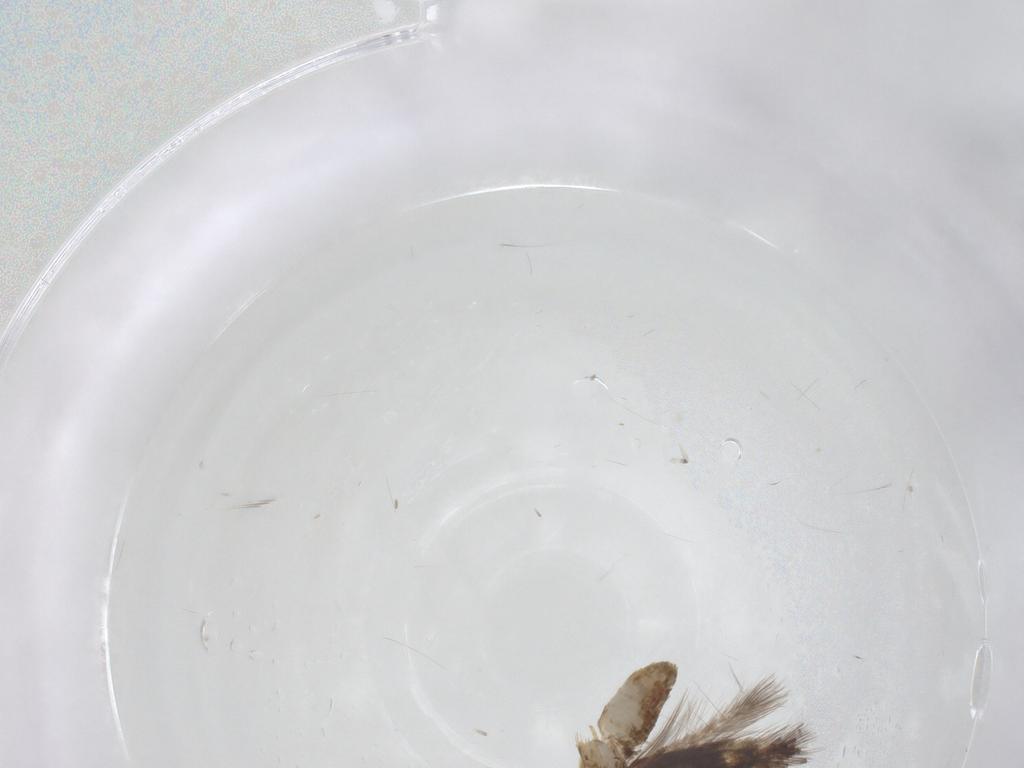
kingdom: Animalia
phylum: Arthropoda
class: Insecta
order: Lepidoptera
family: Nepticulidae
